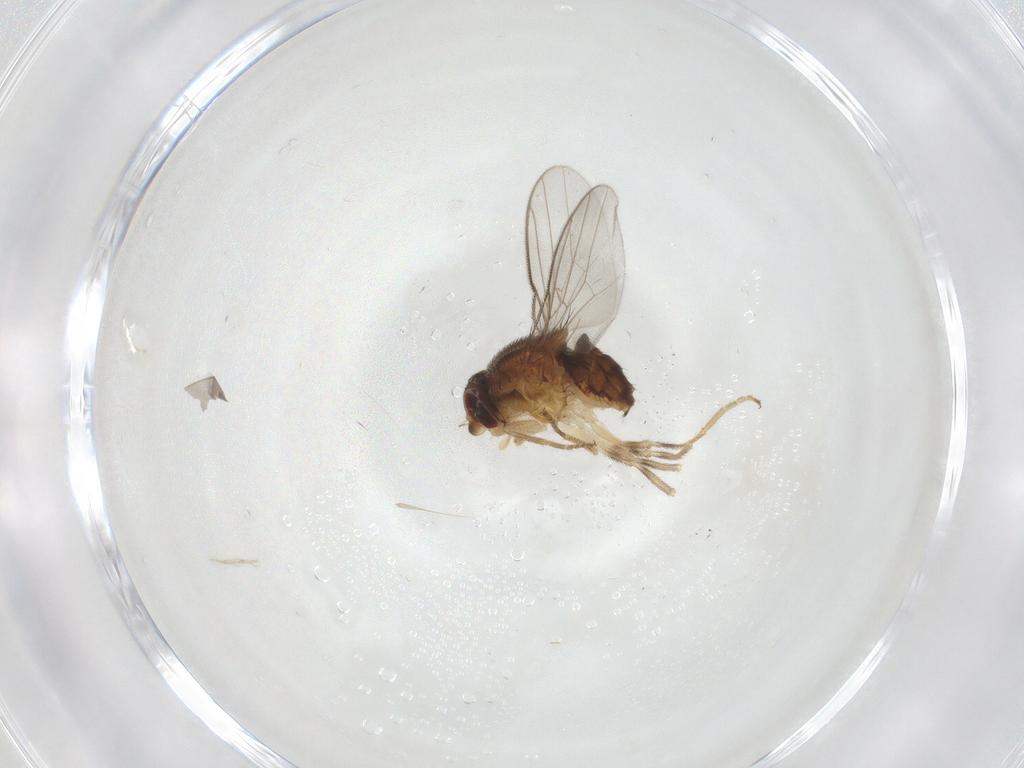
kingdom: Animalia
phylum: Arthropoda
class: Insecta
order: Diptera
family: Chloropidae
